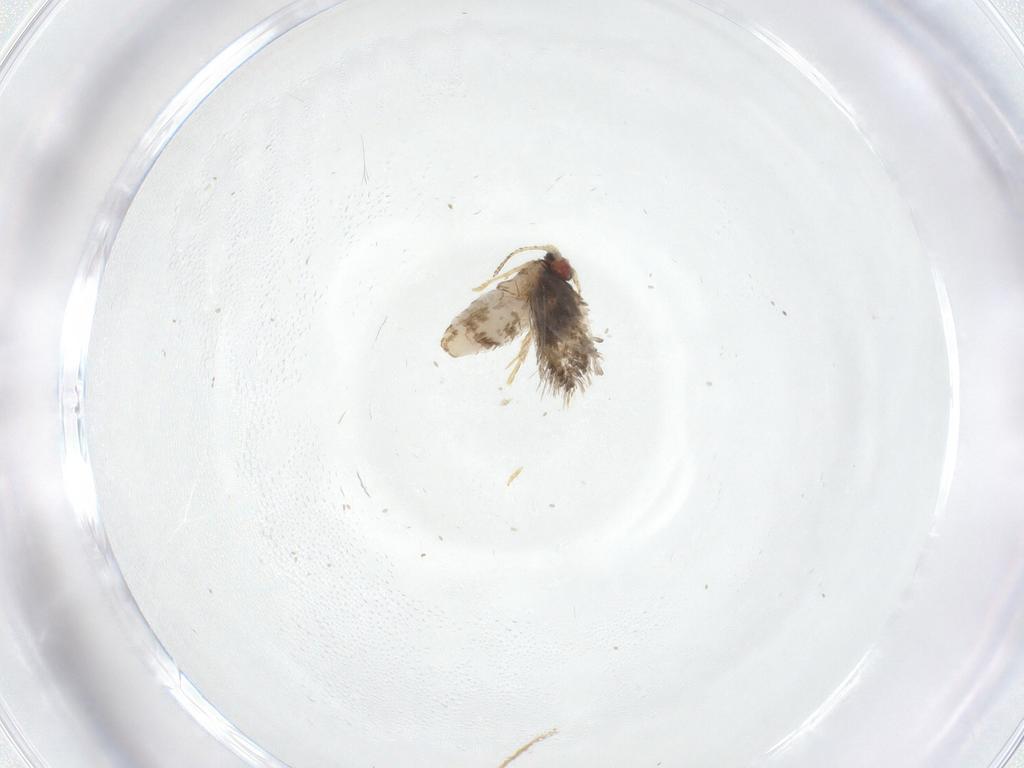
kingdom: Animalia
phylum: Arthropoda
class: Insecta
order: Lepidoptera
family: Nepticulidae
